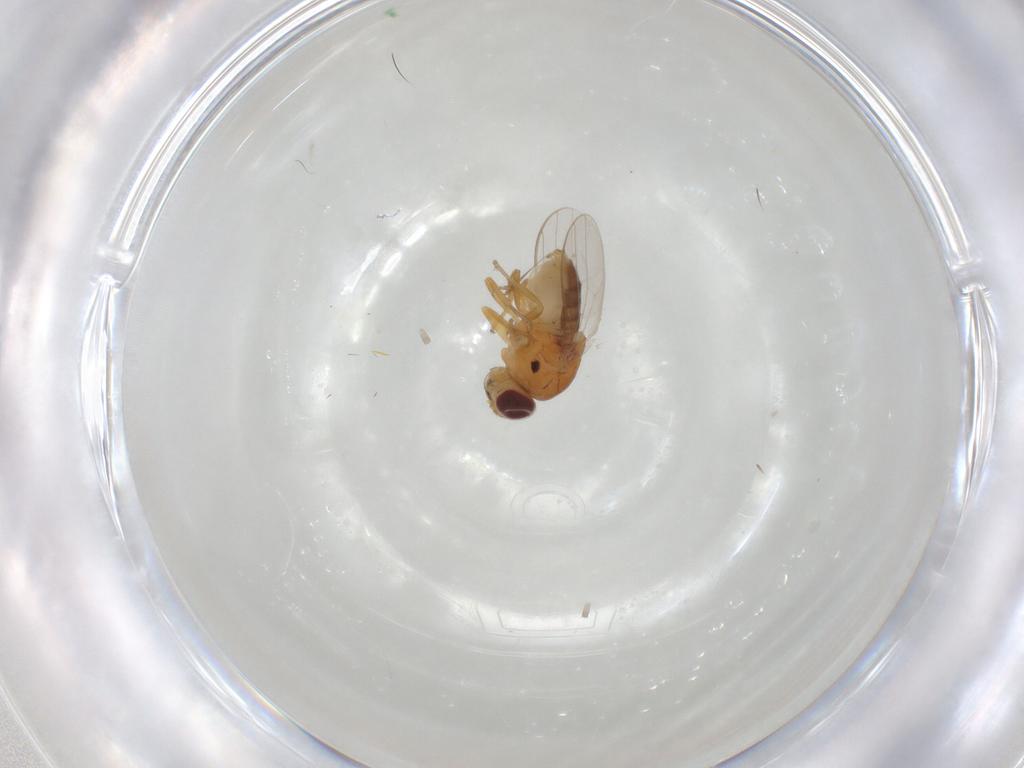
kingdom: Animalia
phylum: Arthropoda
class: Insecta
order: Diptera
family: Chloropidae
